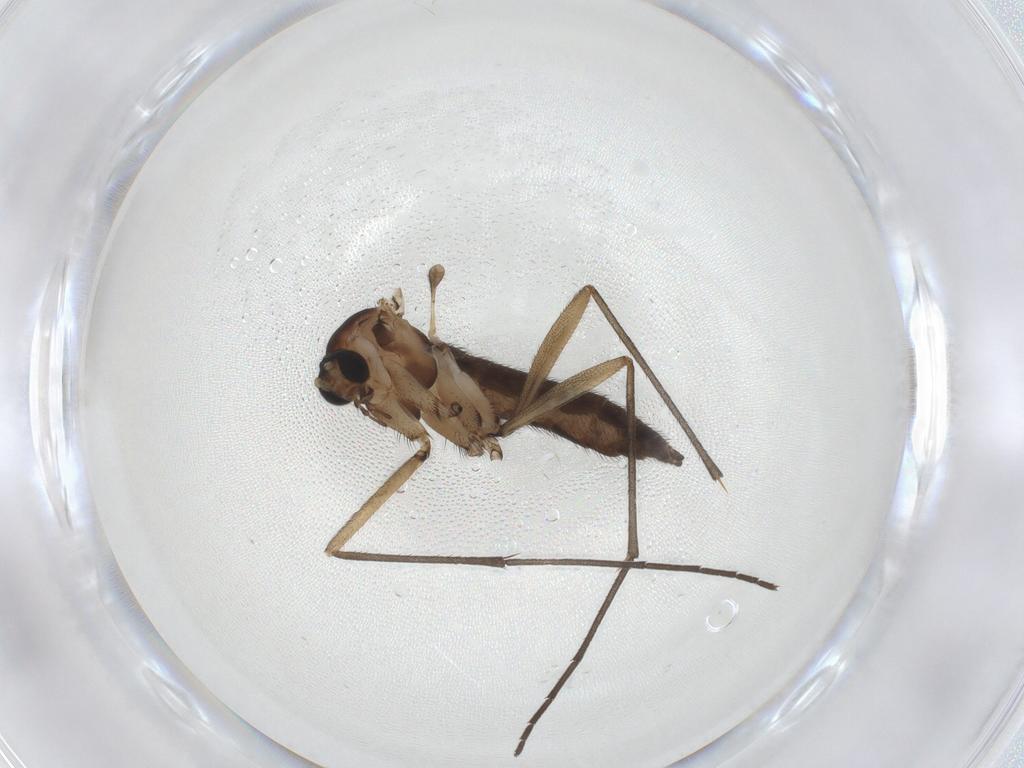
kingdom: Animalia
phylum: Arthropoda
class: Insecta
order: Diptera
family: Sciaridae
